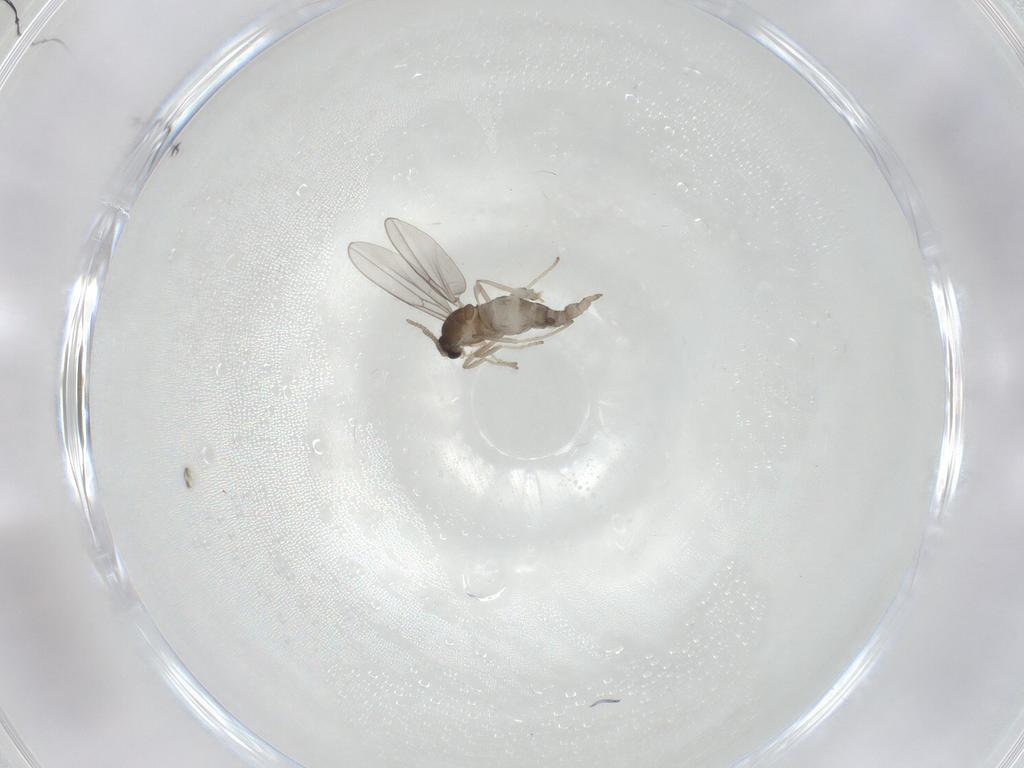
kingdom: Animalia
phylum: Arthropoda
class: Insecta
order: Diptera
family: Cecidomyiidae
